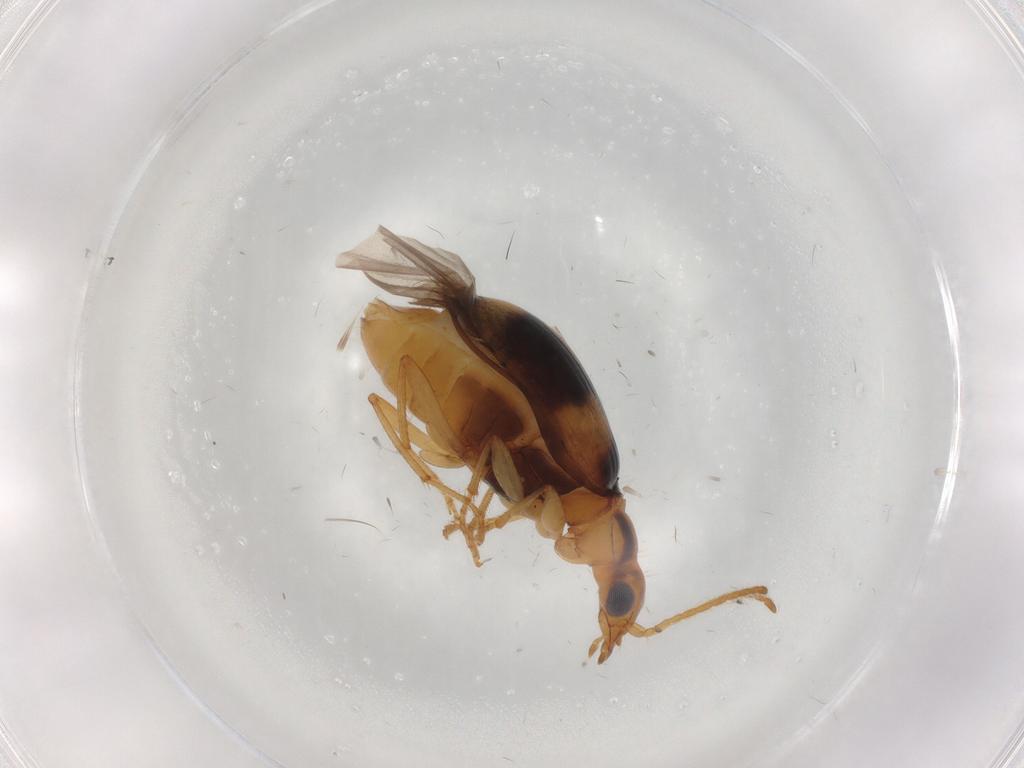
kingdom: Animalia
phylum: Arthropoda
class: Insecta
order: Coleoptera
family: Carabidae
